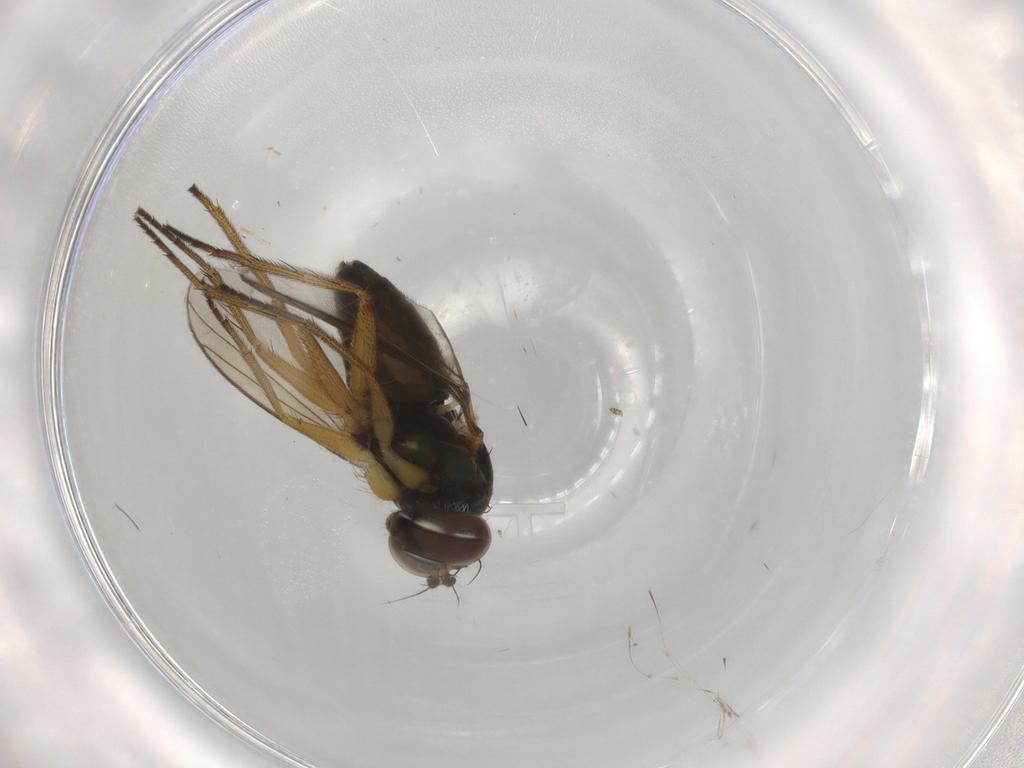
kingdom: Animalia
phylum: Arthropoda
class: Insecta
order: Diptera
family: Dolichopodidae
